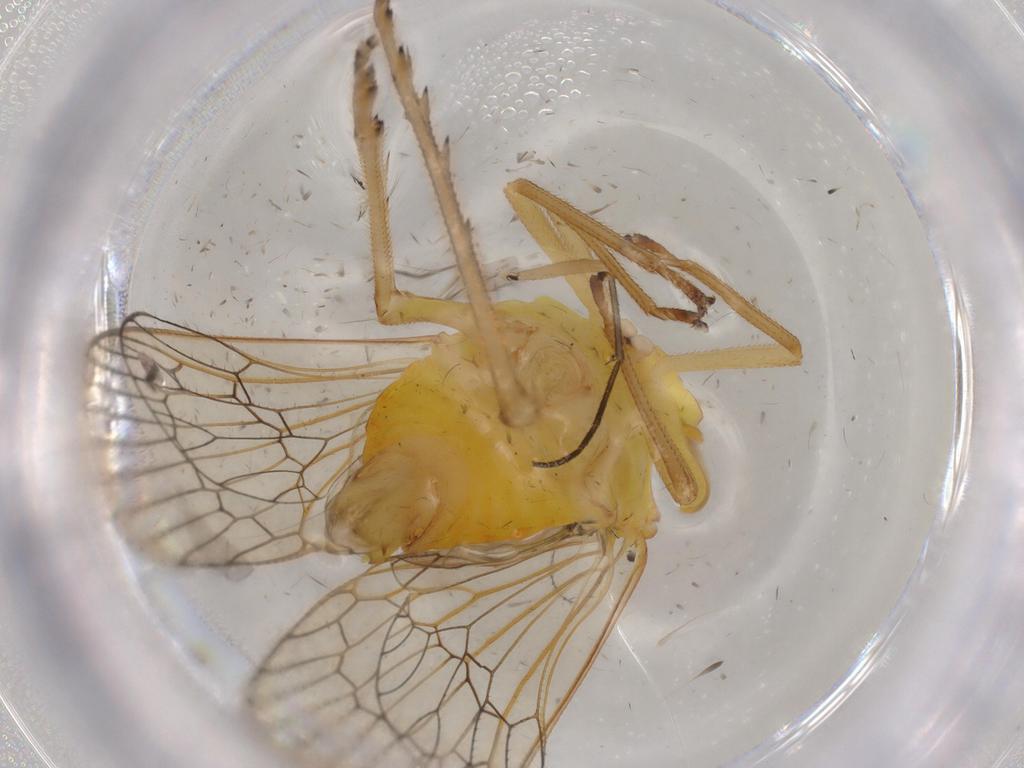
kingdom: Animalia
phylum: Arthropoda
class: Insecta
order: Hemiptera
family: Tropiduchidae
